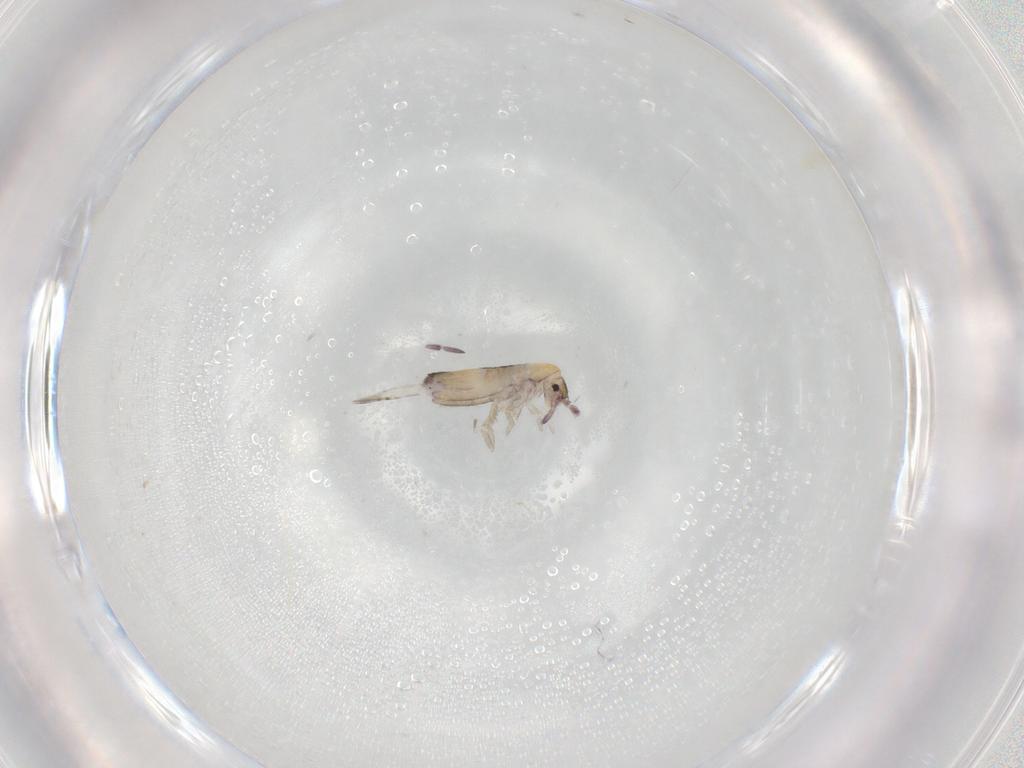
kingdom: Animalia
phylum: Arthropoda
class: Collembola
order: Entomobryomorpha
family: Entomobryidae
